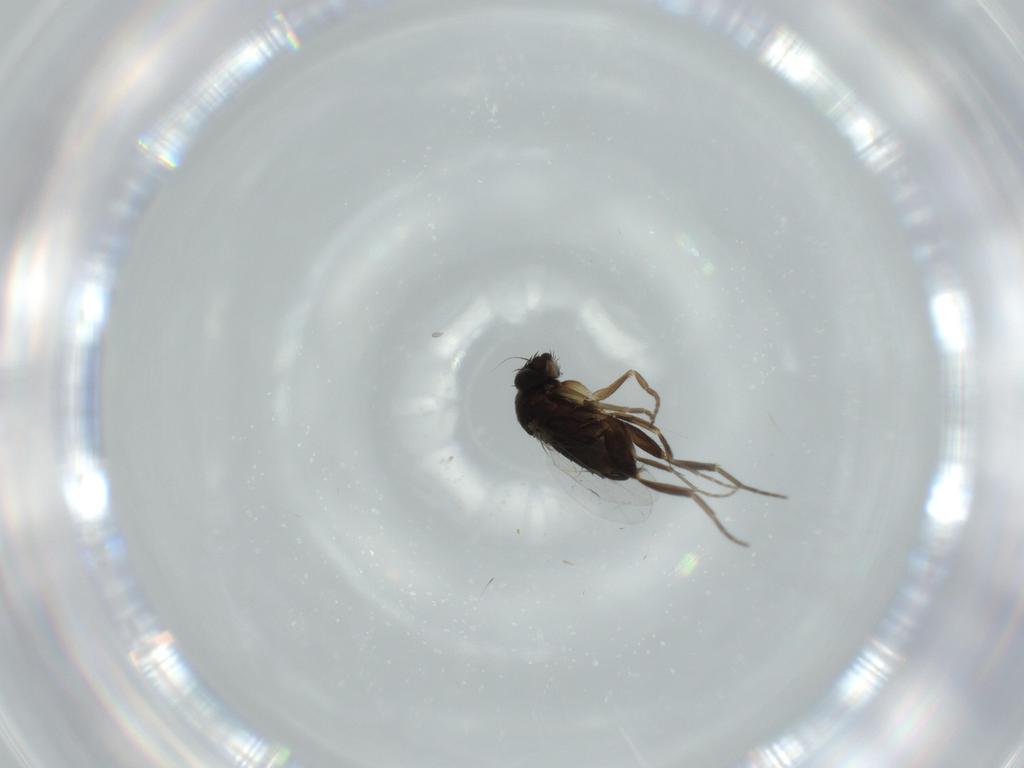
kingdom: Animalia
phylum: Arthropoda
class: Insecta
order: Diptera
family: Phoridae
